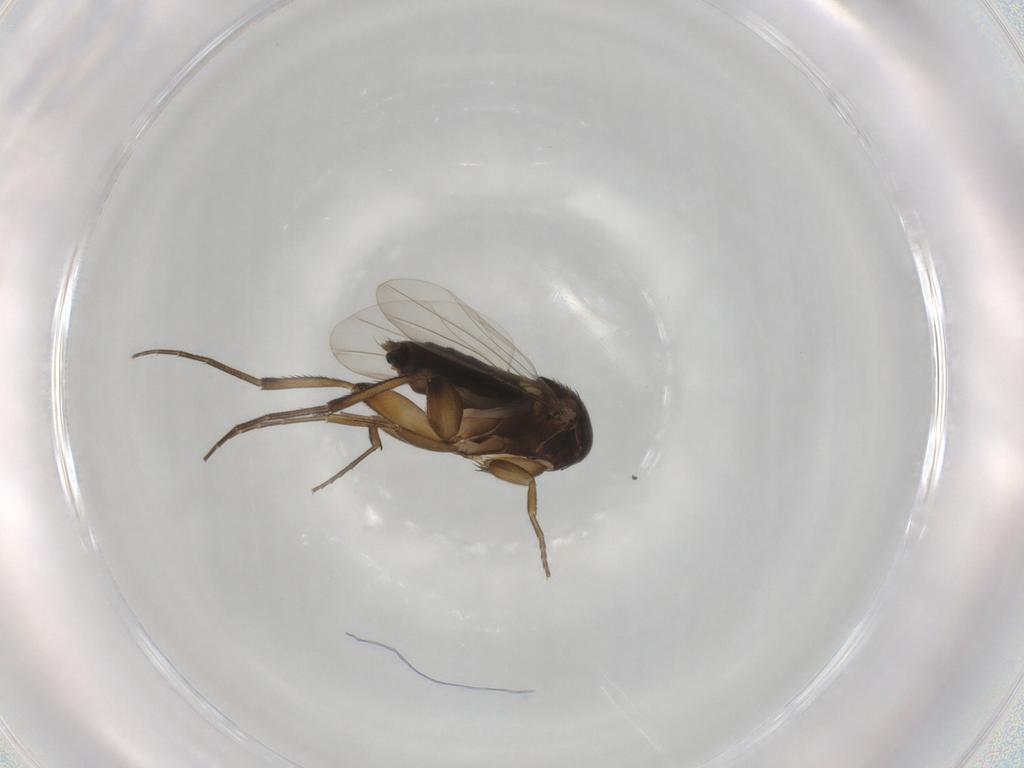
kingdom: Animalia
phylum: Arthropoda
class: Insecta
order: Diptera
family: Phoridae
